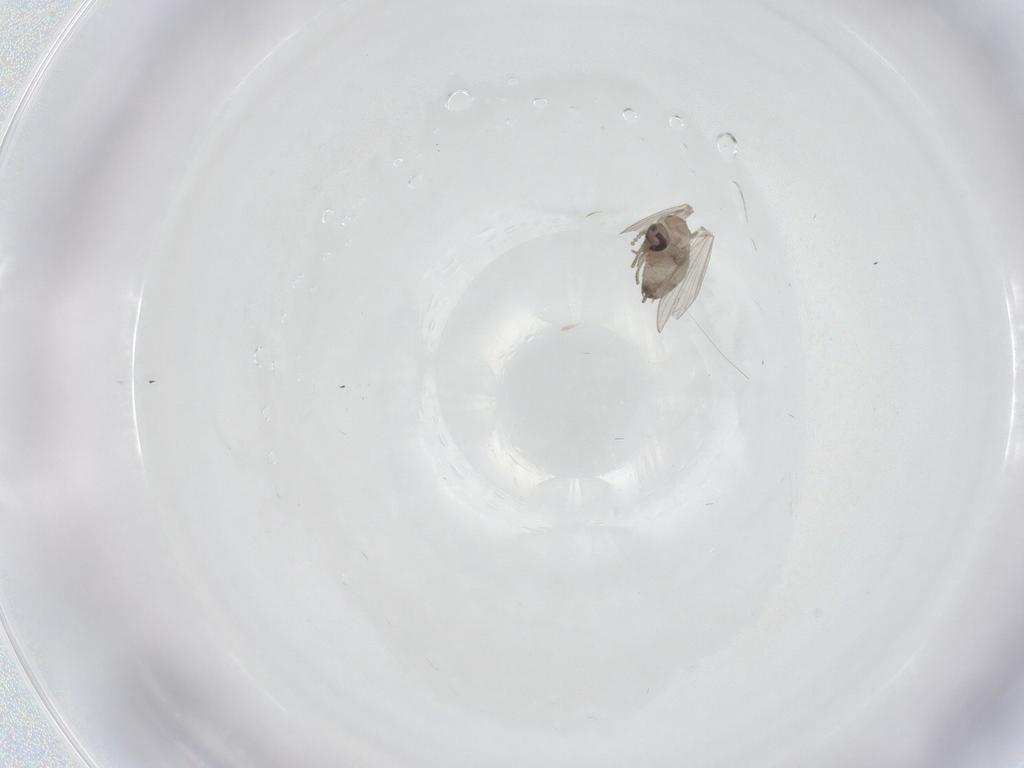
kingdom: Animalia
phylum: Arthropoda
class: Insecta
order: Diptera
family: Psychodidae
